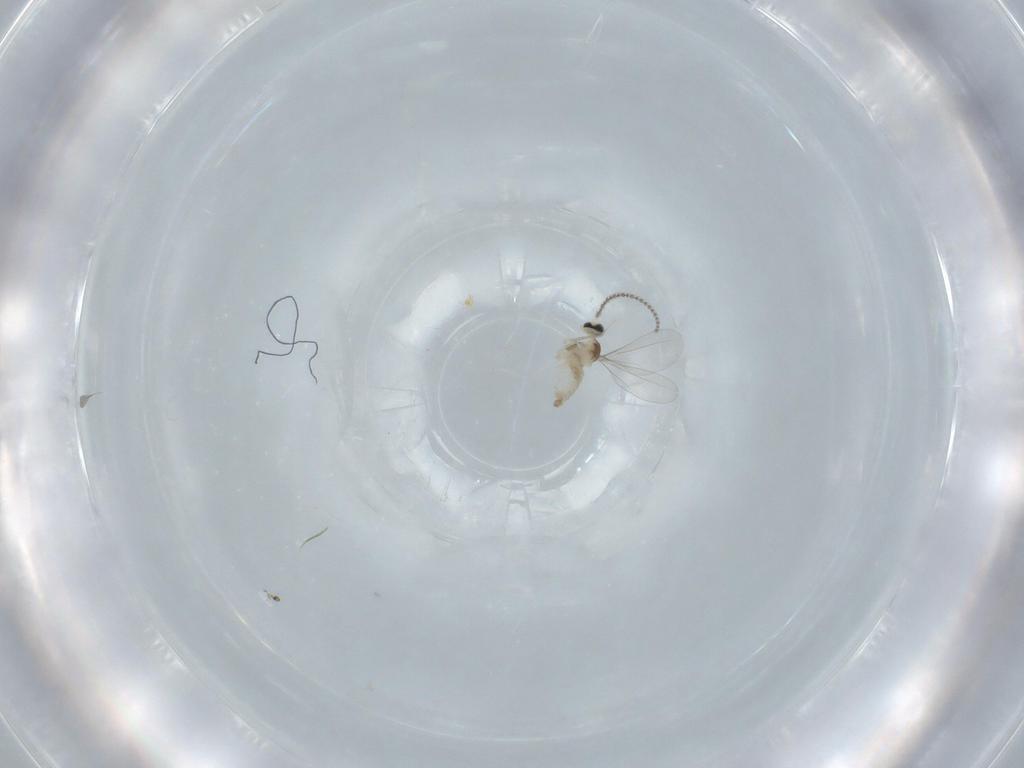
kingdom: Animalia
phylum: Arthropoda
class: Insecta
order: Diptera
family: Cecidomyiidae
